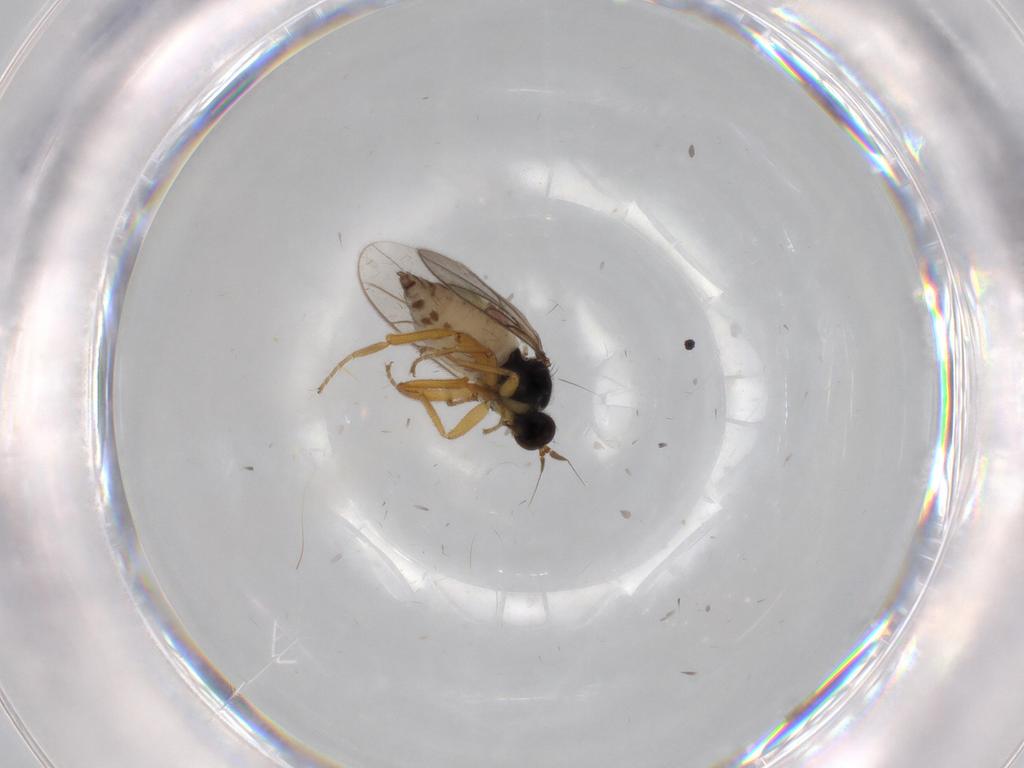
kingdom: Animalia
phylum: Arthropoda
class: Insecta
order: Diptera
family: Hybotidae
